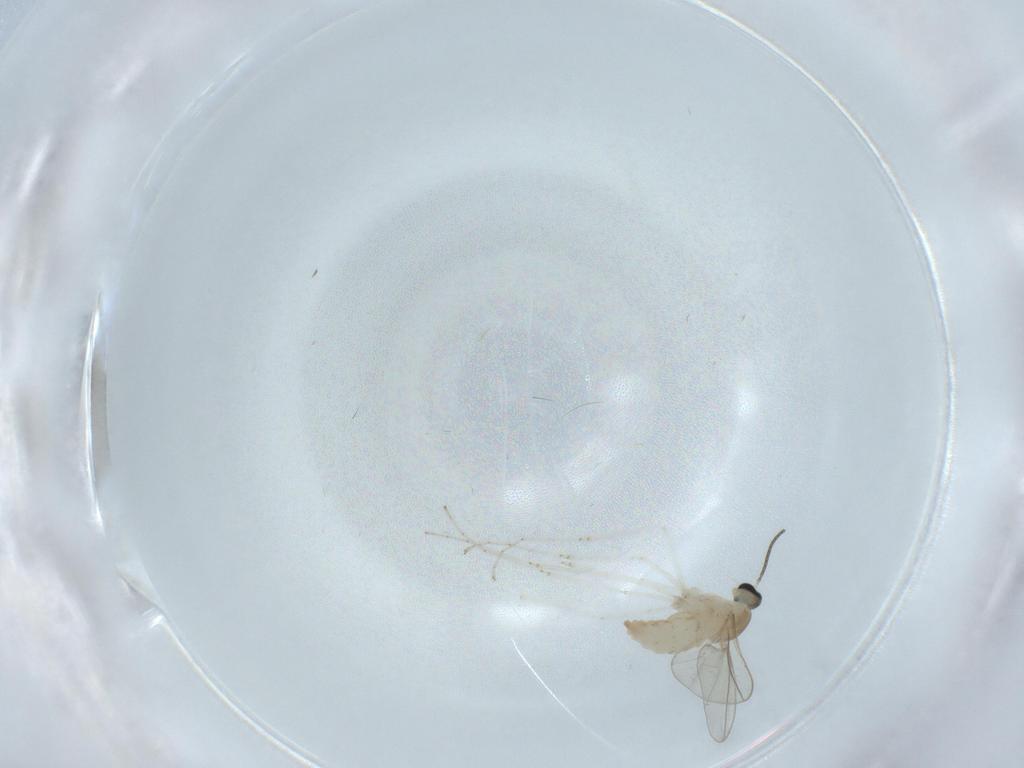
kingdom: Animalia
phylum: Arthropoda
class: Insecta
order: Diptera
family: Cecidomyiidae
